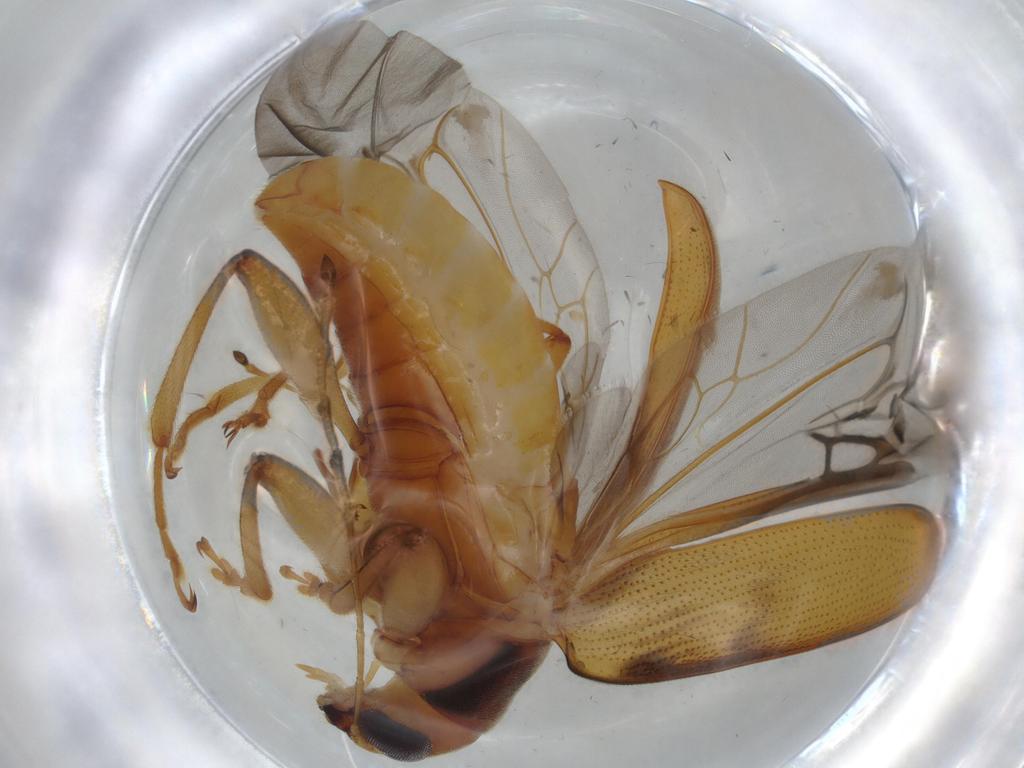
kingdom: Animalia
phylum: Arthropoda
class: Insecta
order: Coleoptera
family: Chrysomelidae
